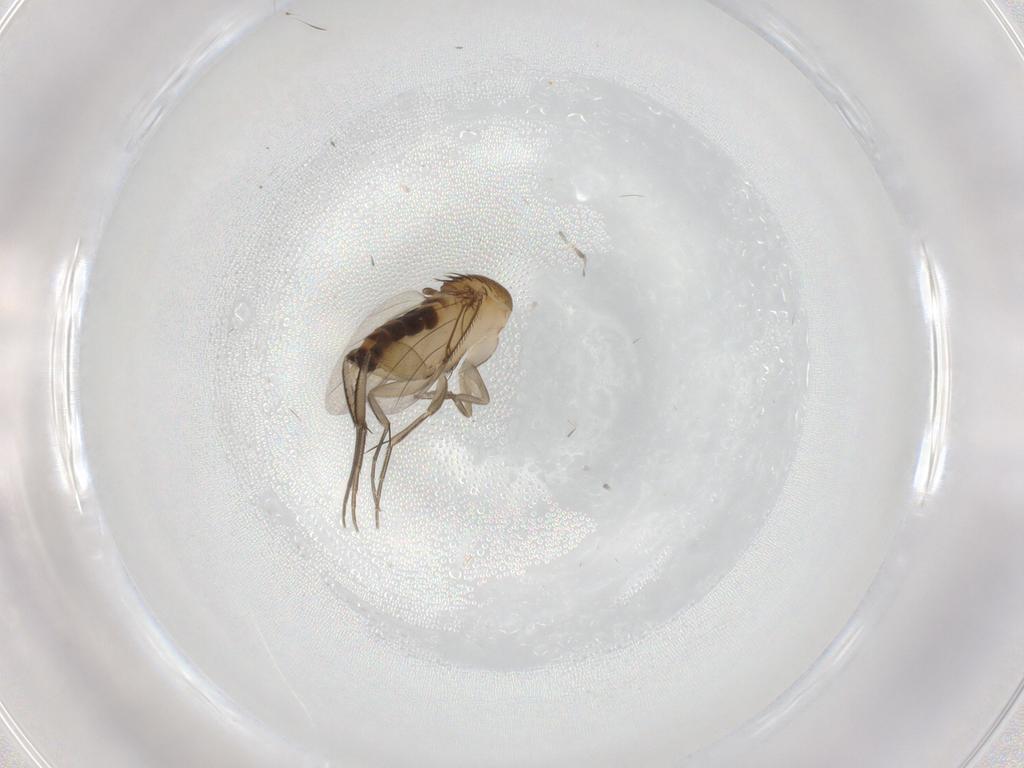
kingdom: Animalia
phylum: Arthropoda
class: Insecta
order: Diptera
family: Phoridae
